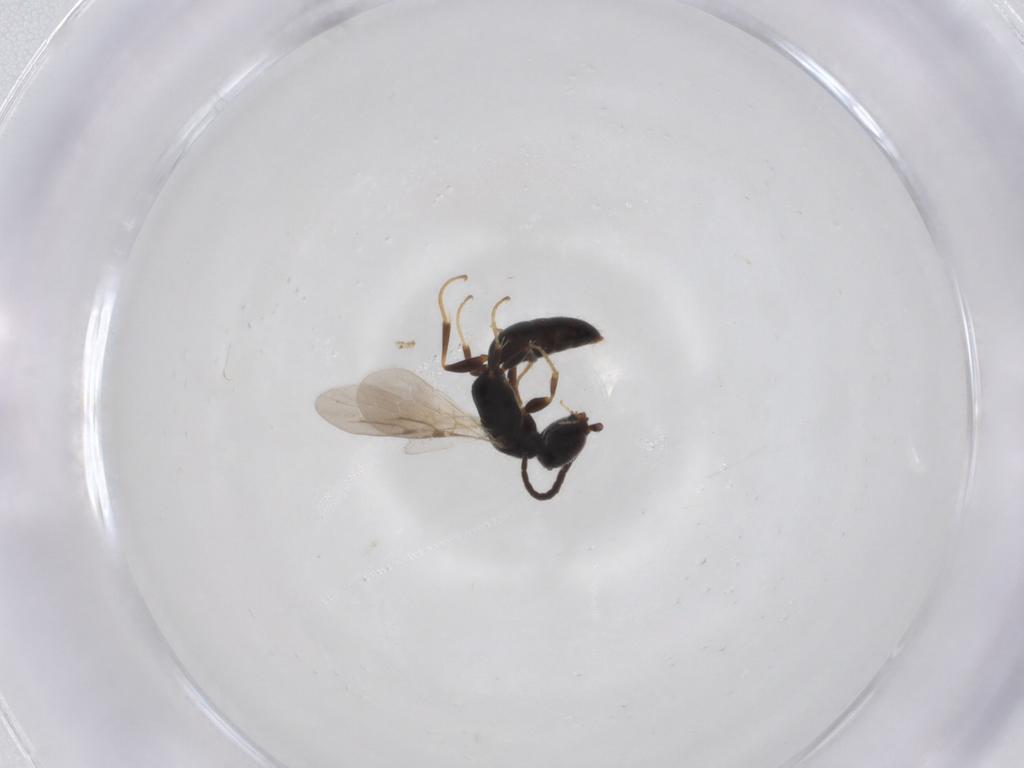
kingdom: Animalia
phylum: Arthropoda
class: Insecta
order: Hymenoptera
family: Bethylidae
